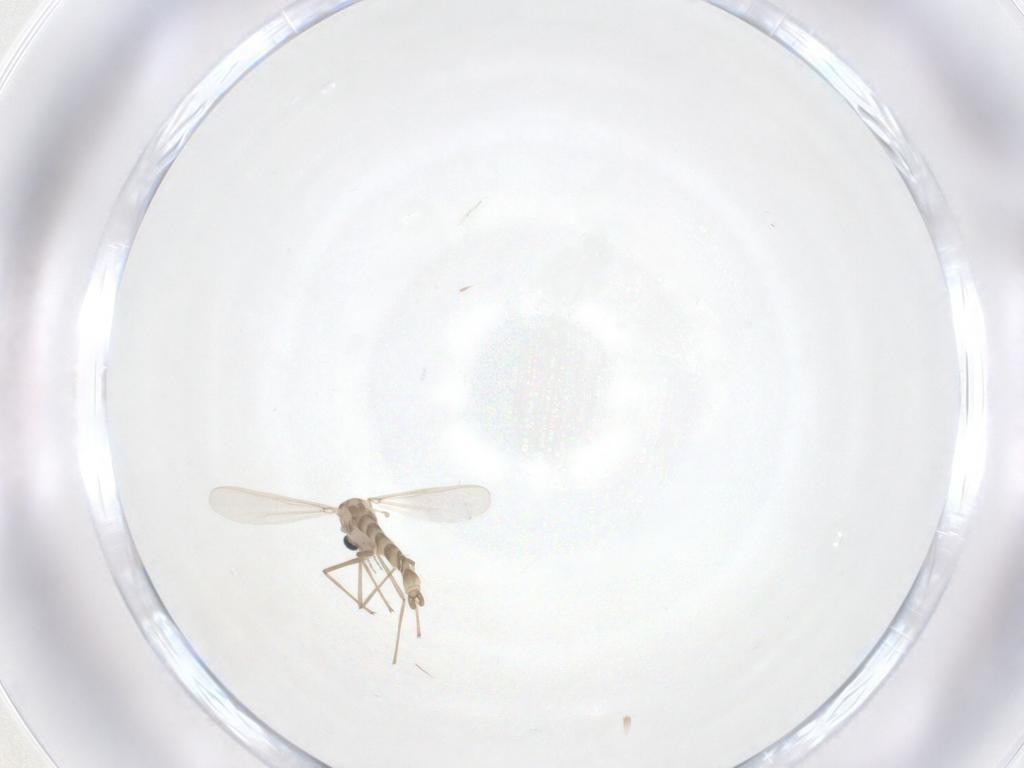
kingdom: Animalia
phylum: Arthropoda
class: Insecta
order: Diptera
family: Chironomidae
